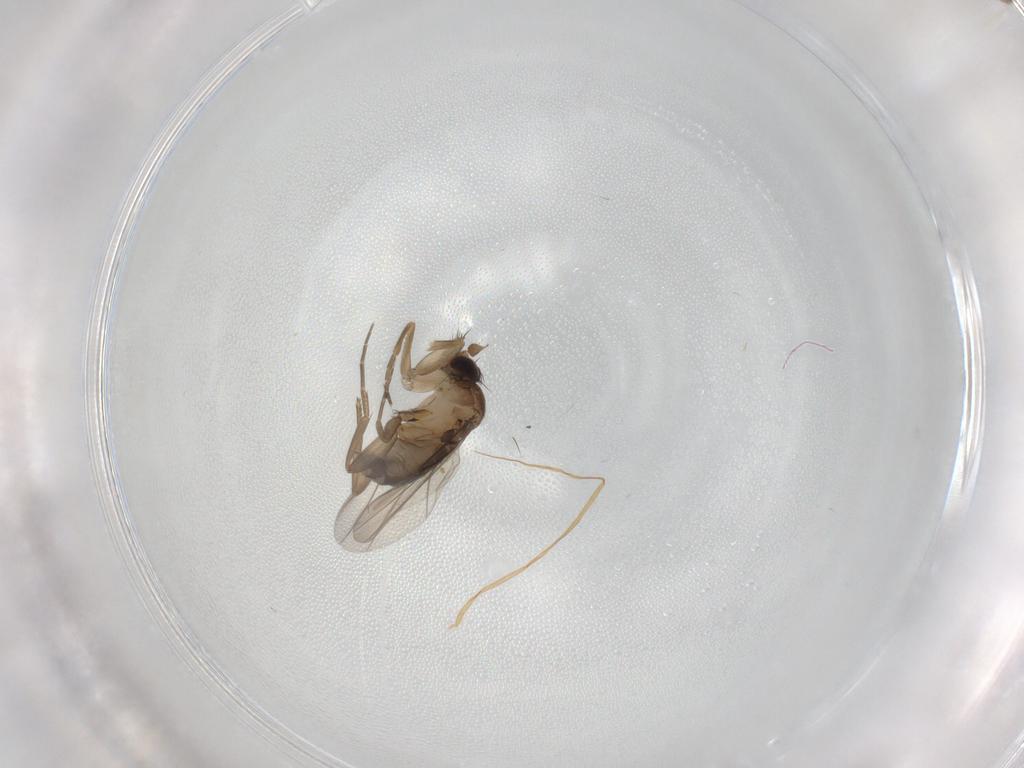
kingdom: Animalia
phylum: Arthropoda
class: Insecta
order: Diptera
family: Phoridae
